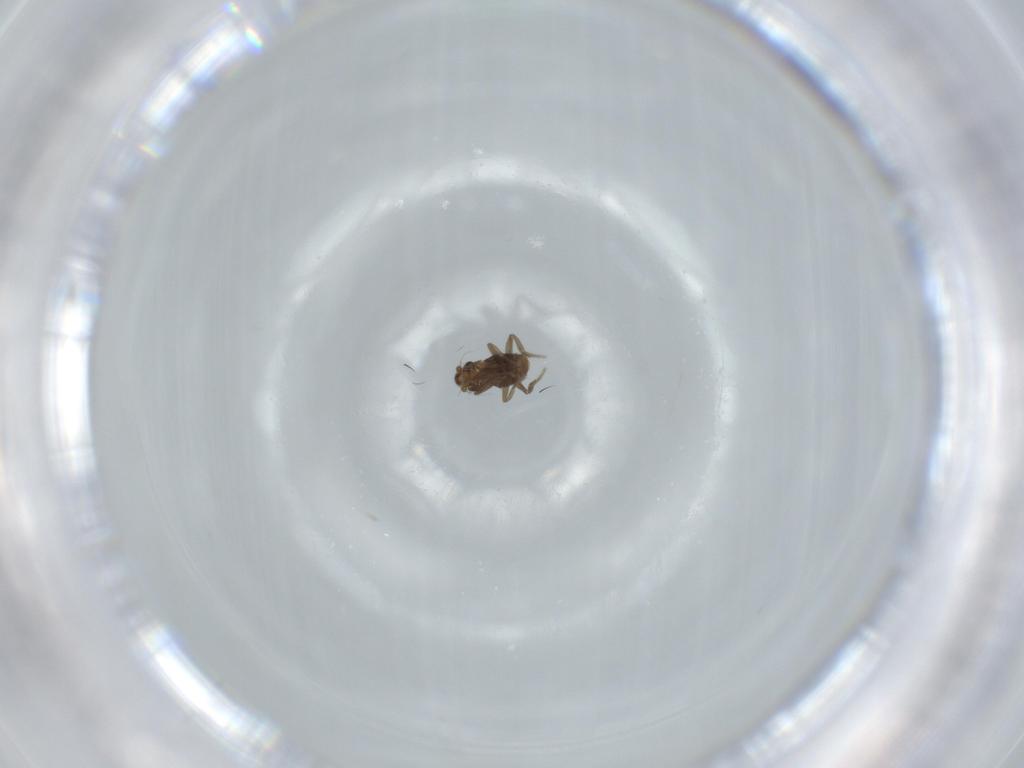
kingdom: Animalia
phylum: Arthropoda
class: Insecta
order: Diptera
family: Phoridae
